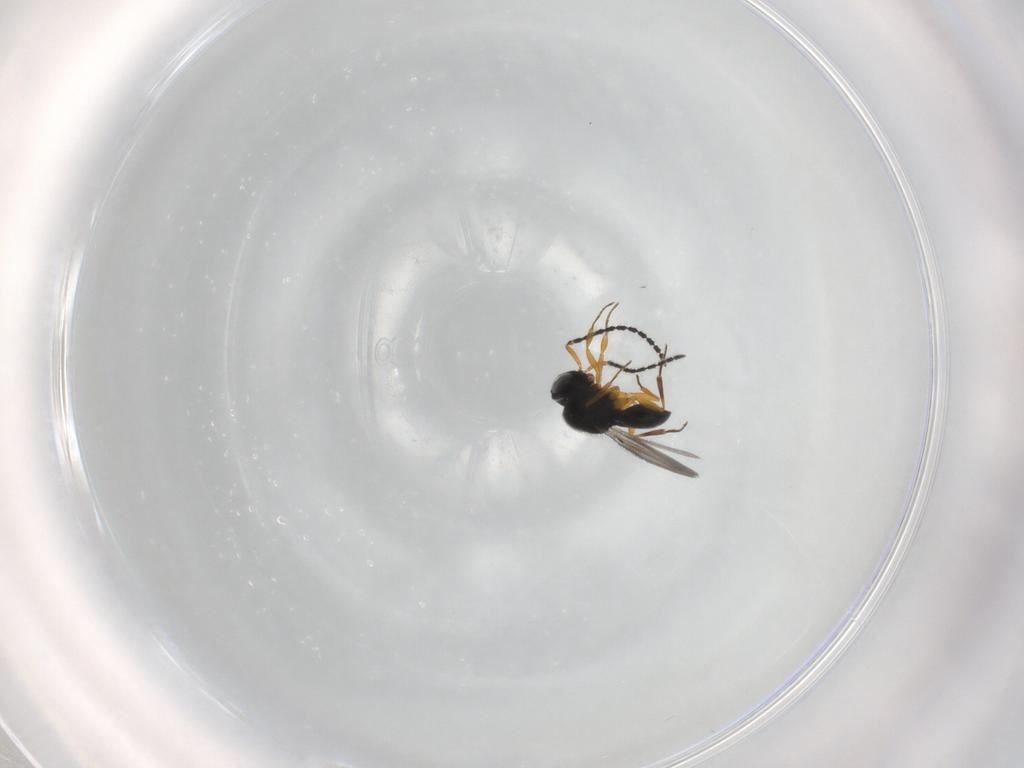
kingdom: Animalia
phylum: Arthropoda
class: Insecta
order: Hymenoptera
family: Scelionidae
